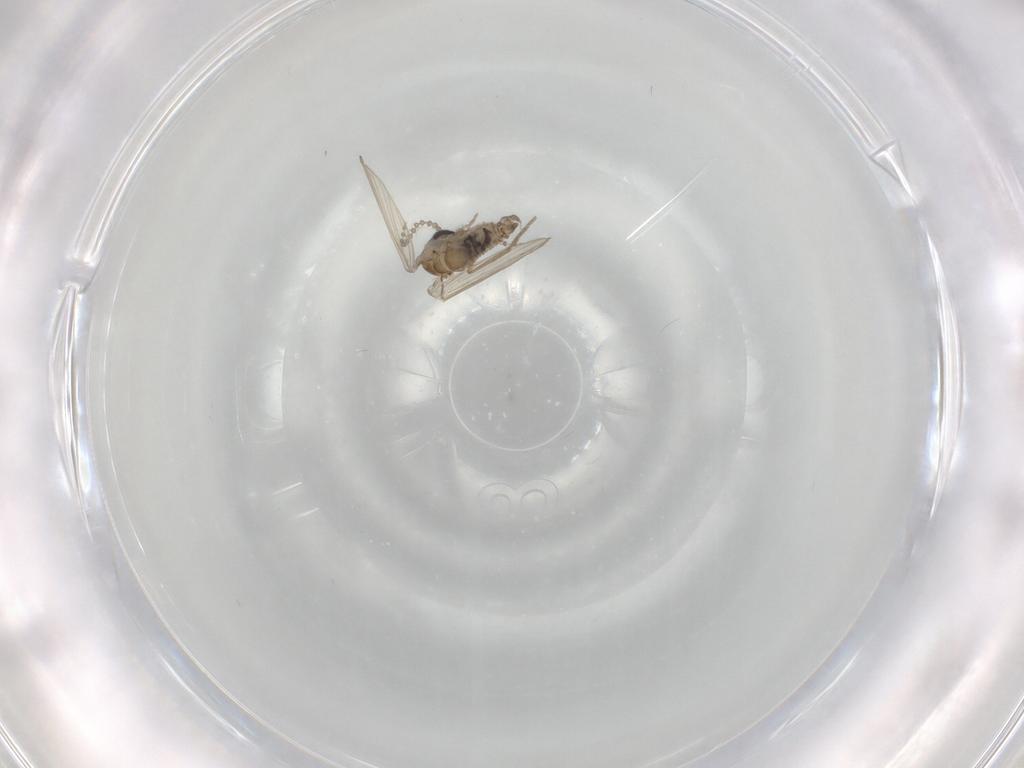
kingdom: Animalia
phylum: Arthropoda
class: Insecta
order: Diptera
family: Psychodidae
